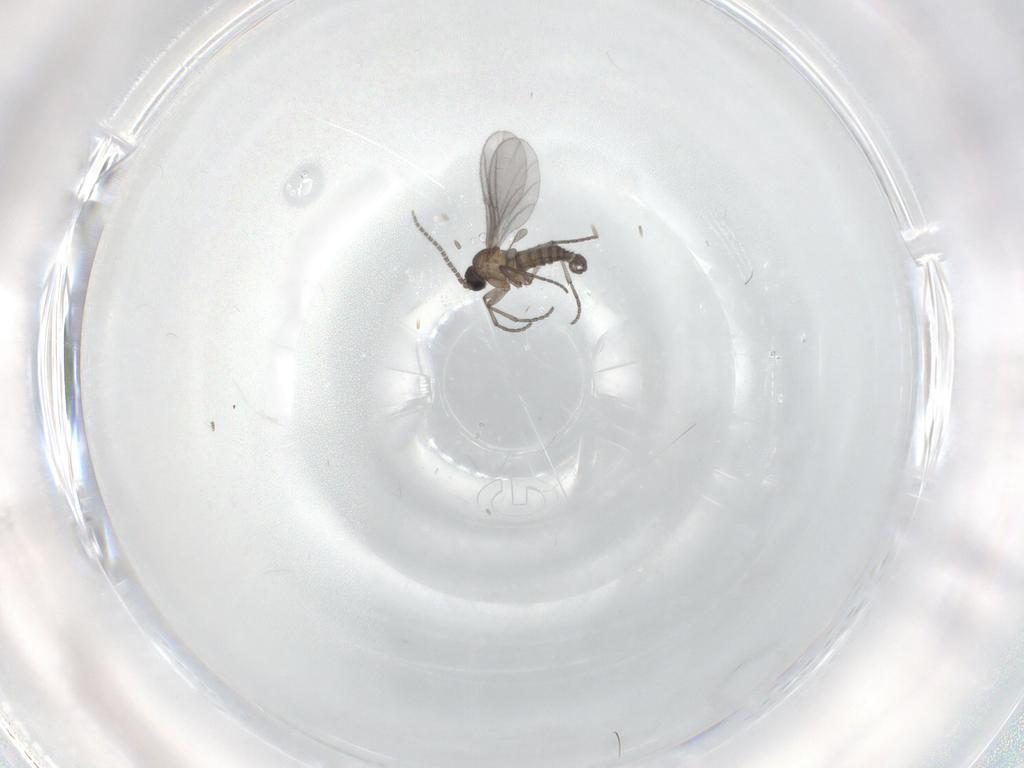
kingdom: Animalia
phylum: Arthropoda
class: Insecta
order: Diptera
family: Sciaridae
